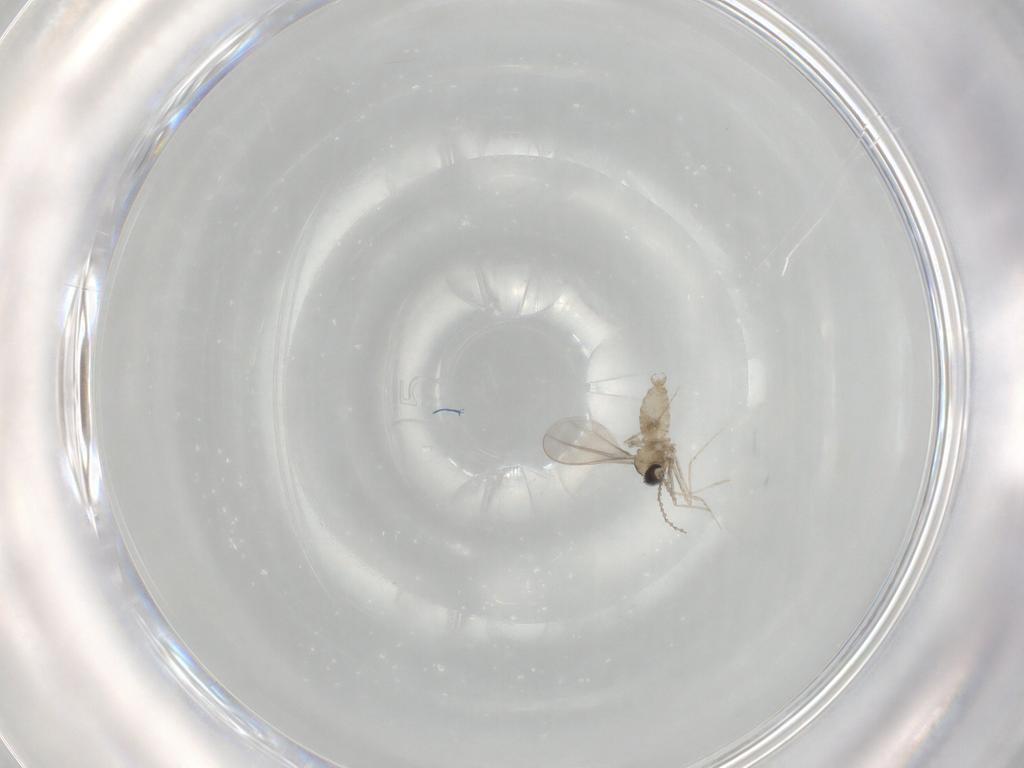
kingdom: Animalia
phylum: Arthropoda
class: Insecta
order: Diptera
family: Cecidomyiidae
